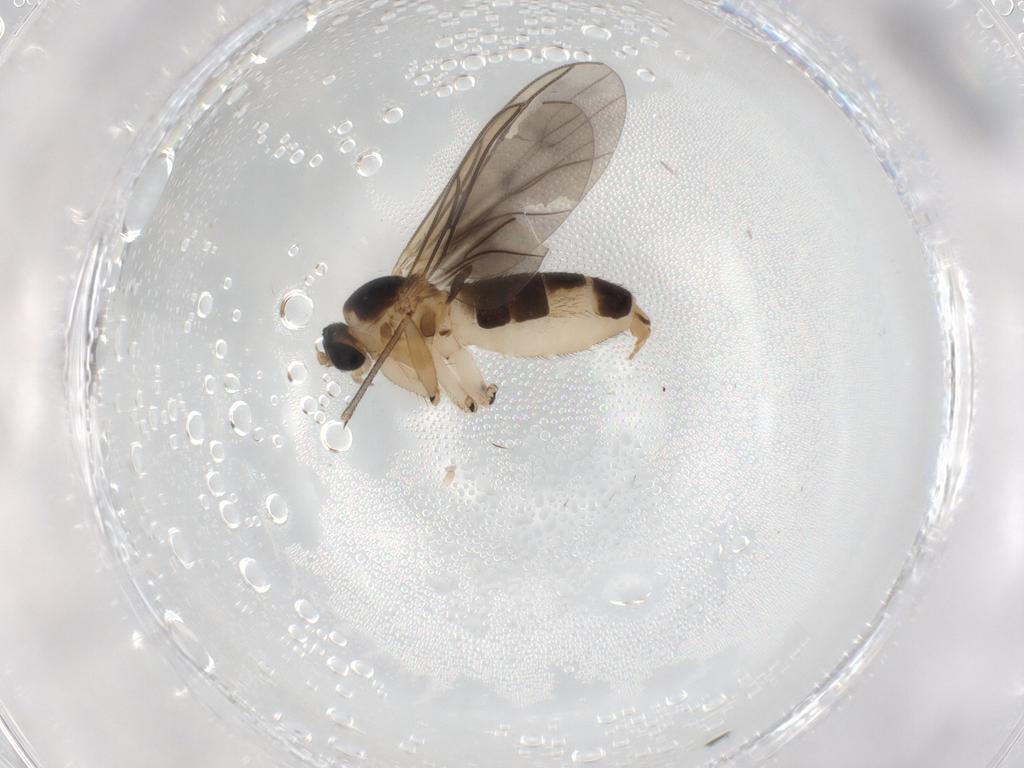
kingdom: Animalia
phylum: Arthropoda
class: Insecta
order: Diptera
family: Sciaridae
